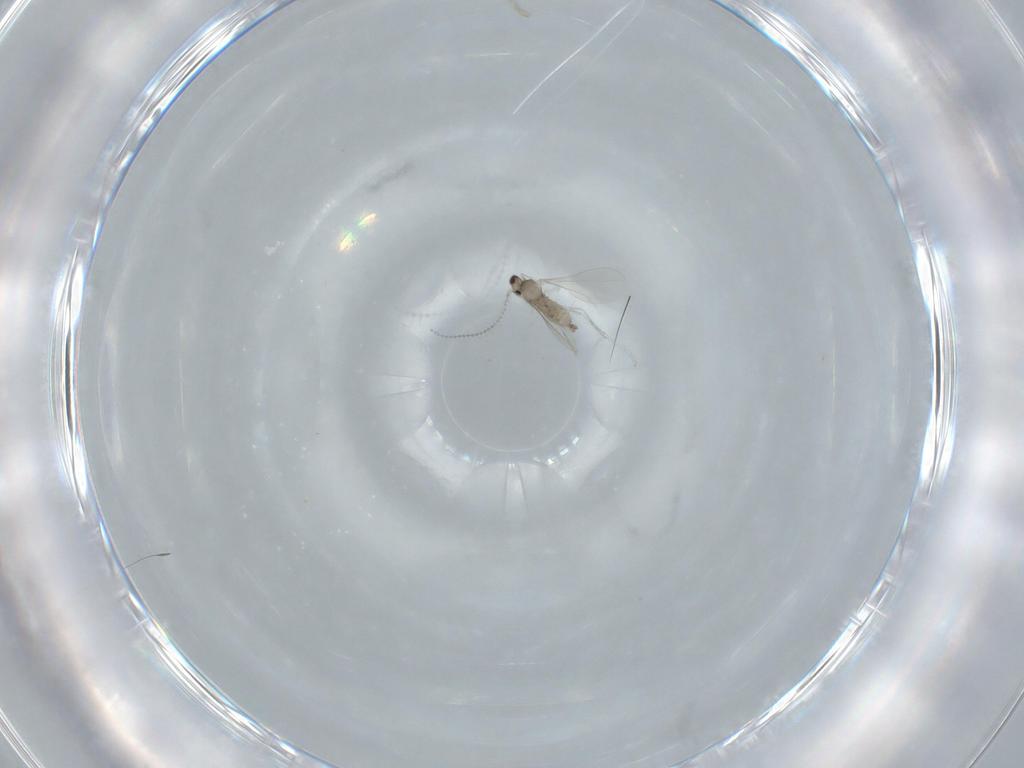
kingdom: Animalia
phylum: Arthropoda
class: Insecta
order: Diptera
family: Cecidomyiidae
